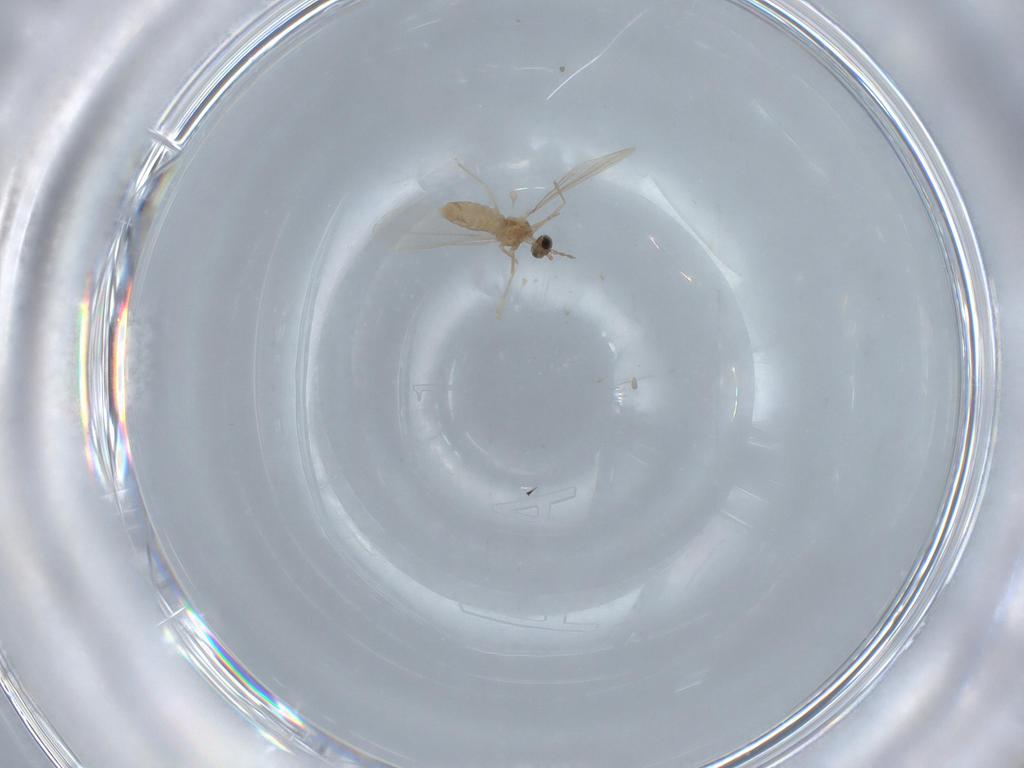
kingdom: Animalia
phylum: Arthropoda
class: Insecta
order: Diptera
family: Cecidomyiidae
